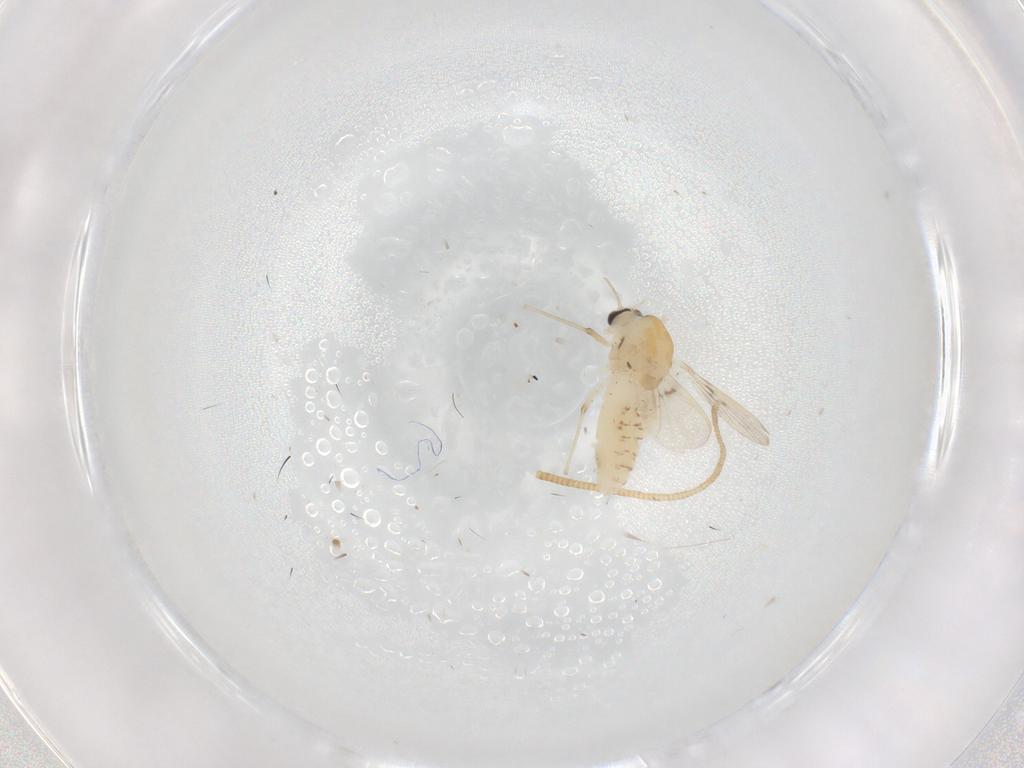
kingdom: Animalia
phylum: Arthropoda
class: Insecta
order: Diptera
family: Chironomidae
